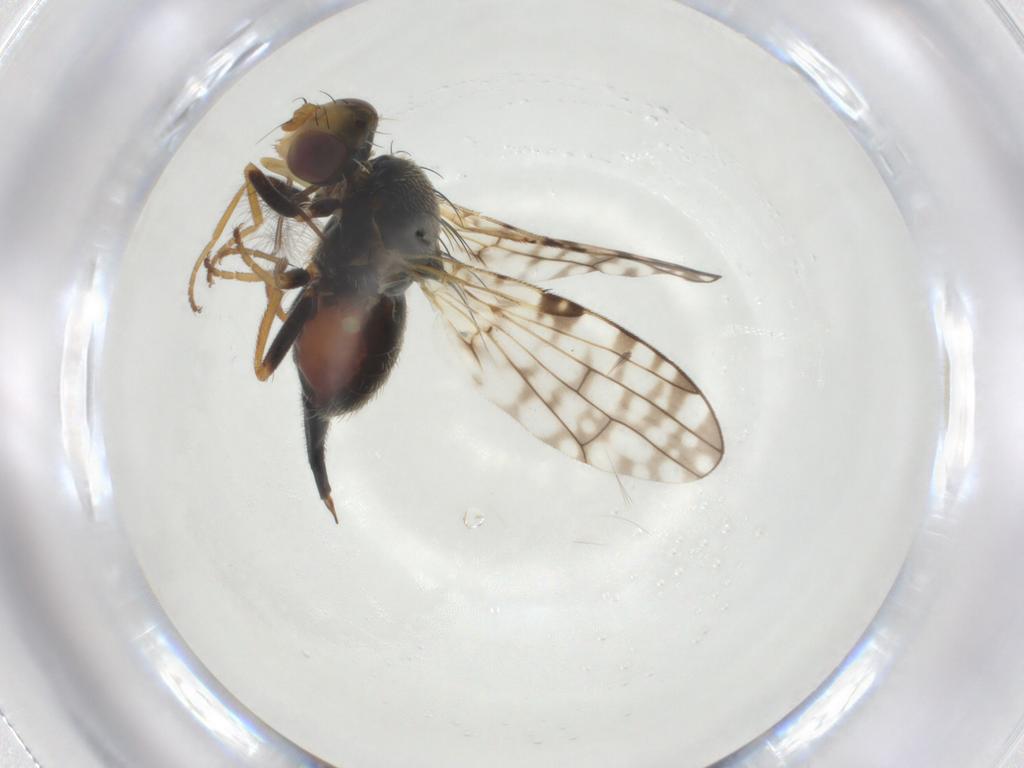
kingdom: Animalia
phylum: Arthropoda
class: Insecta
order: Diptera
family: Tephritidae
